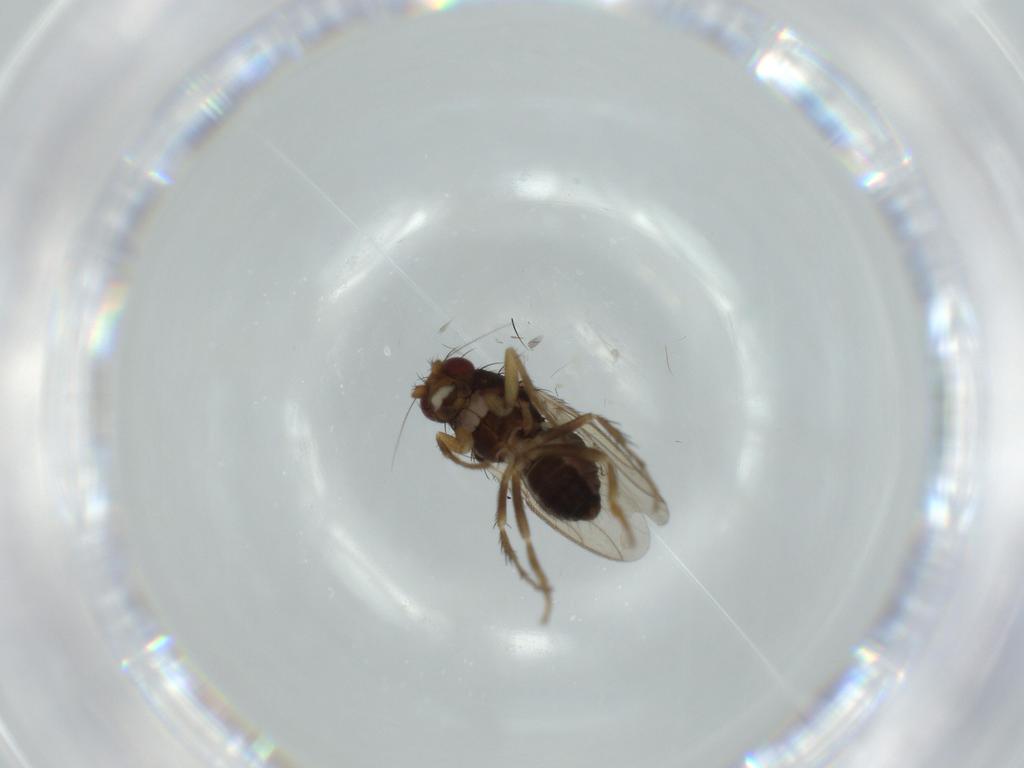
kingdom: Animalia
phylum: Arthropoda
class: Insecta
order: Diptera
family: Sphaeroceridae
